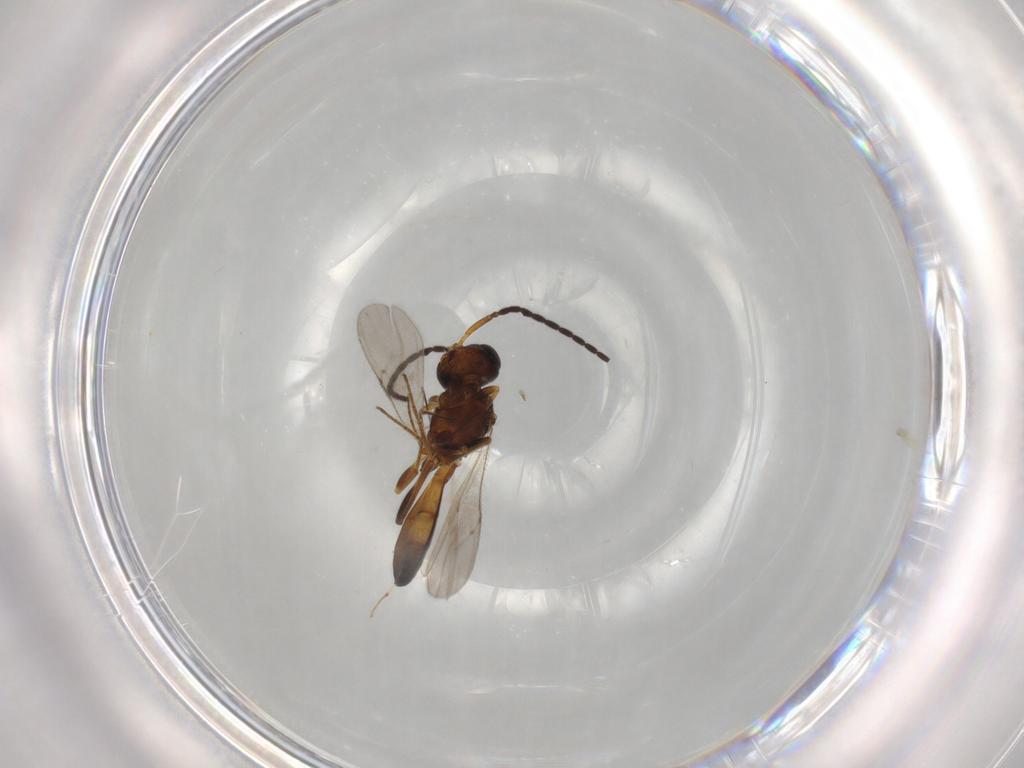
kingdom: Animalia
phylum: Arthropoda
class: Insecta
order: Hymenoptera
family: Scelionidae
